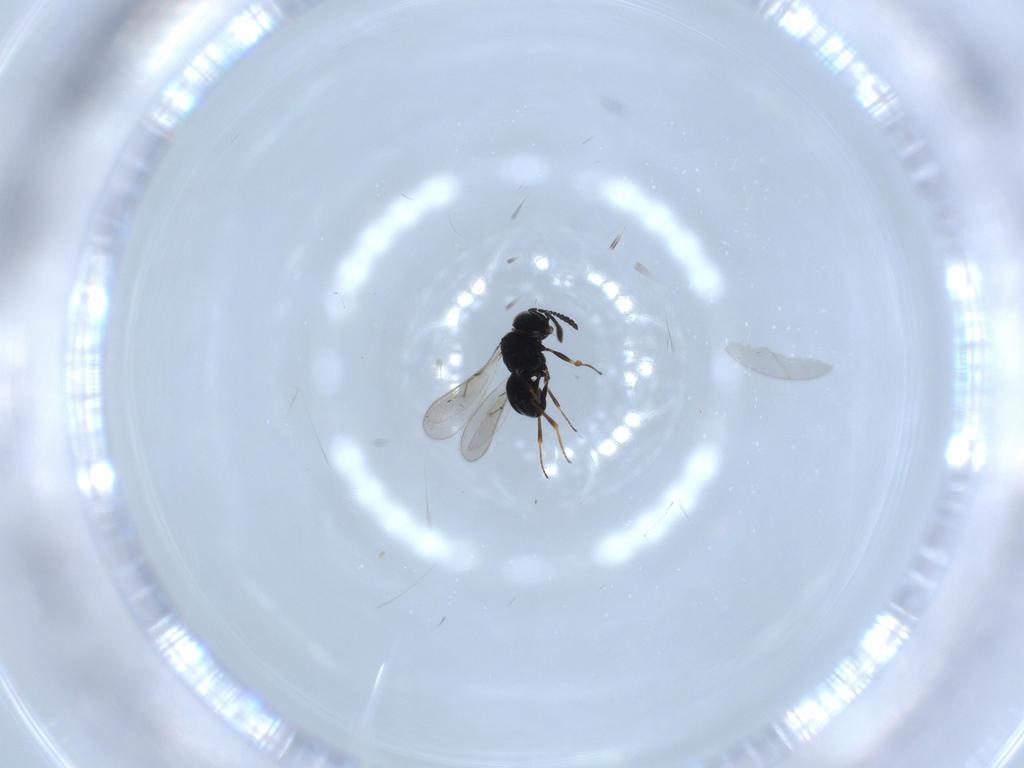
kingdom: Animalia
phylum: Arthropoda
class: Insecta
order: Hymenoptera
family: Scelionidae
